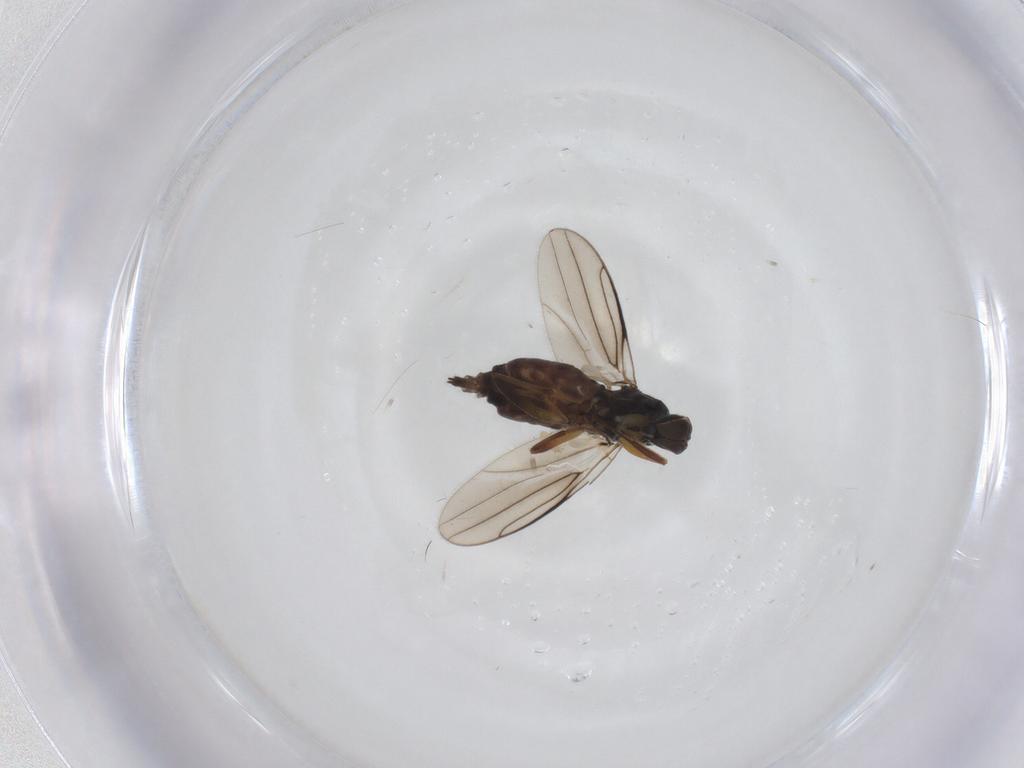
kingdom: Animalia
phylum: Arthropoda
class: Insecta
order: Diptera
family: Hybotidae
